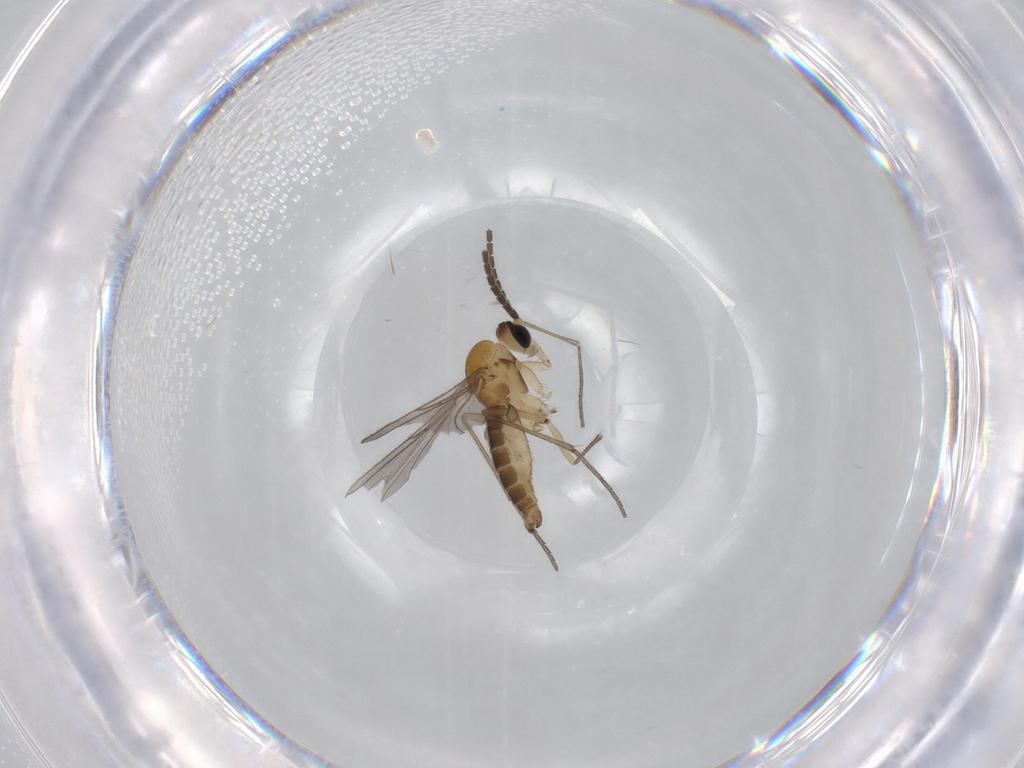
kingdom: Animalia
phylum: Arthropoda
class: Insecta
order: Diptera
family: Sciaridae
